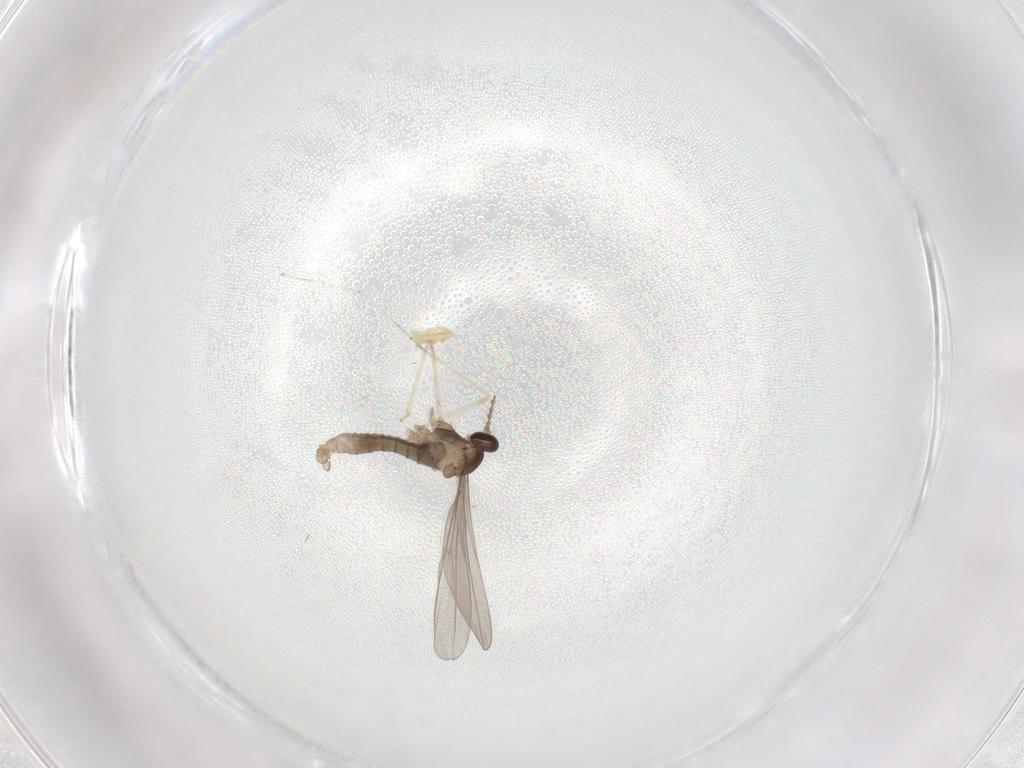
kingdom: Animalia
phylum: Arthropoda
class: Insecta
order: Diptera
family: Cecidomyiidae
